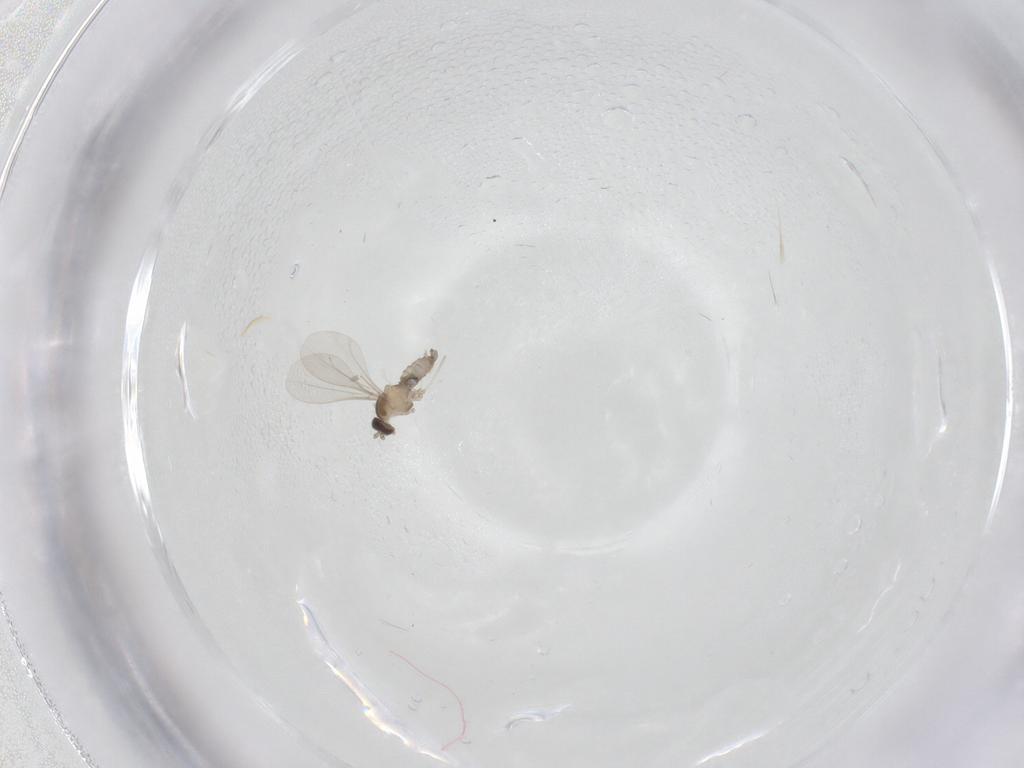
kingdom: Animalia
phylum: Arthropoda
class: Insecta
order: Diptera
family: Cecidomyiidae
